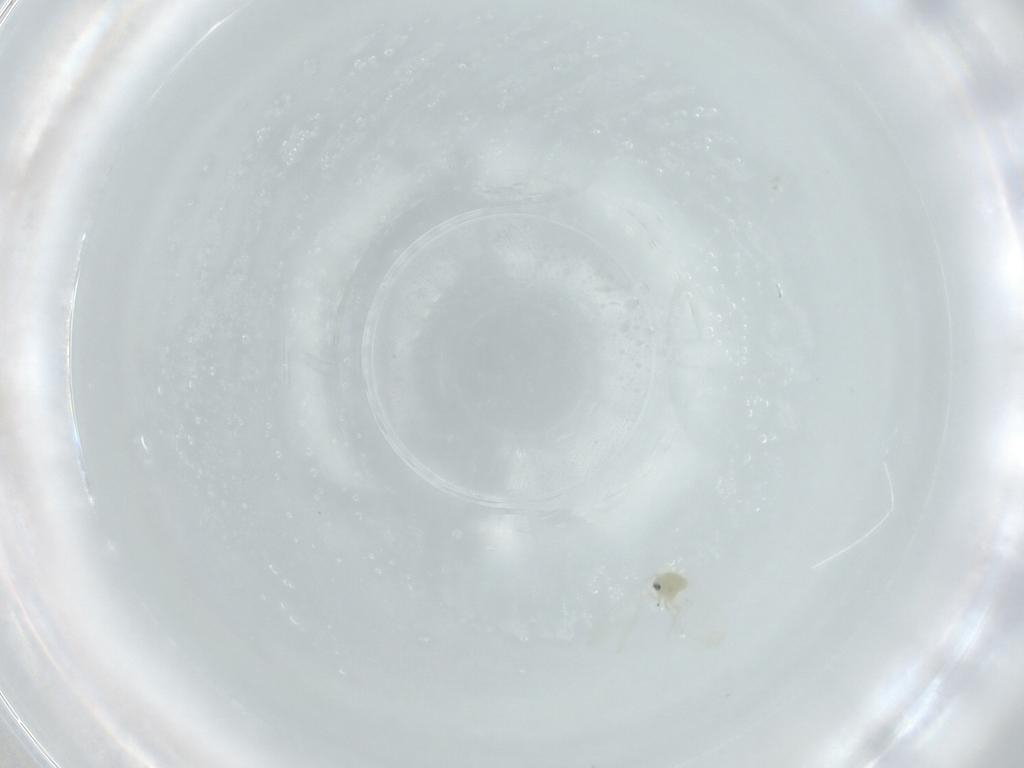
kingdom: Animalia
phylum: Arthropoda
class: Insecta
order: Hemiptera
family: Aleyrodidae
